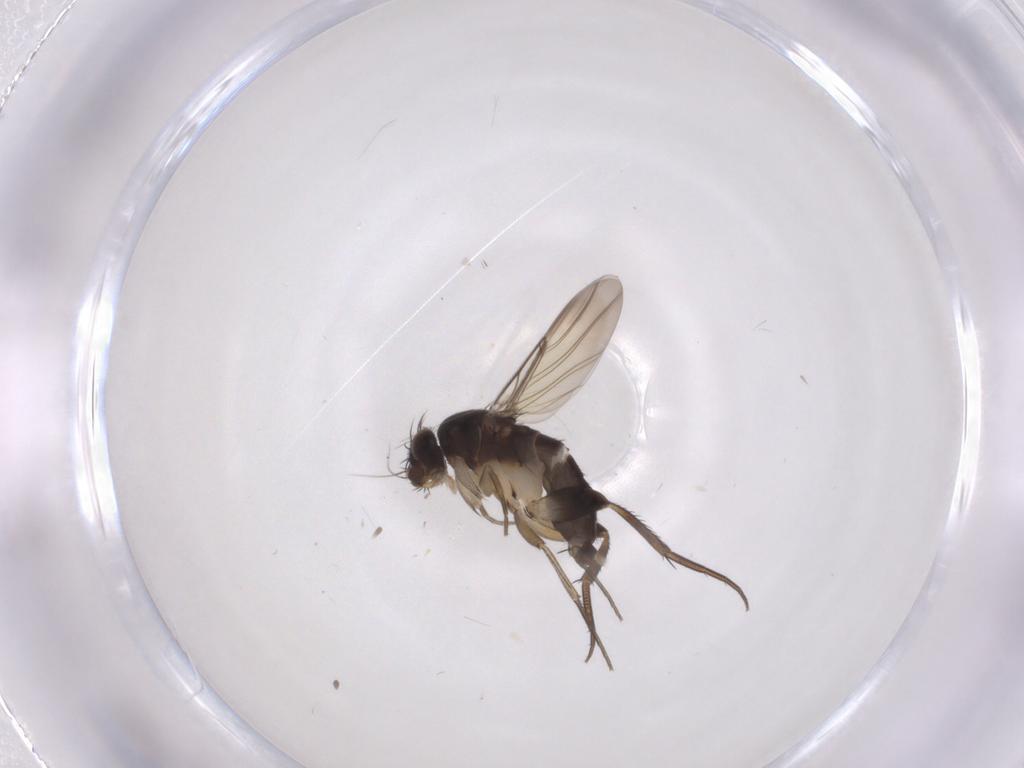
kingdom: Animalia
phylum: Arthropoda
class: Insecta
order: Diptera
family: Phoridae
